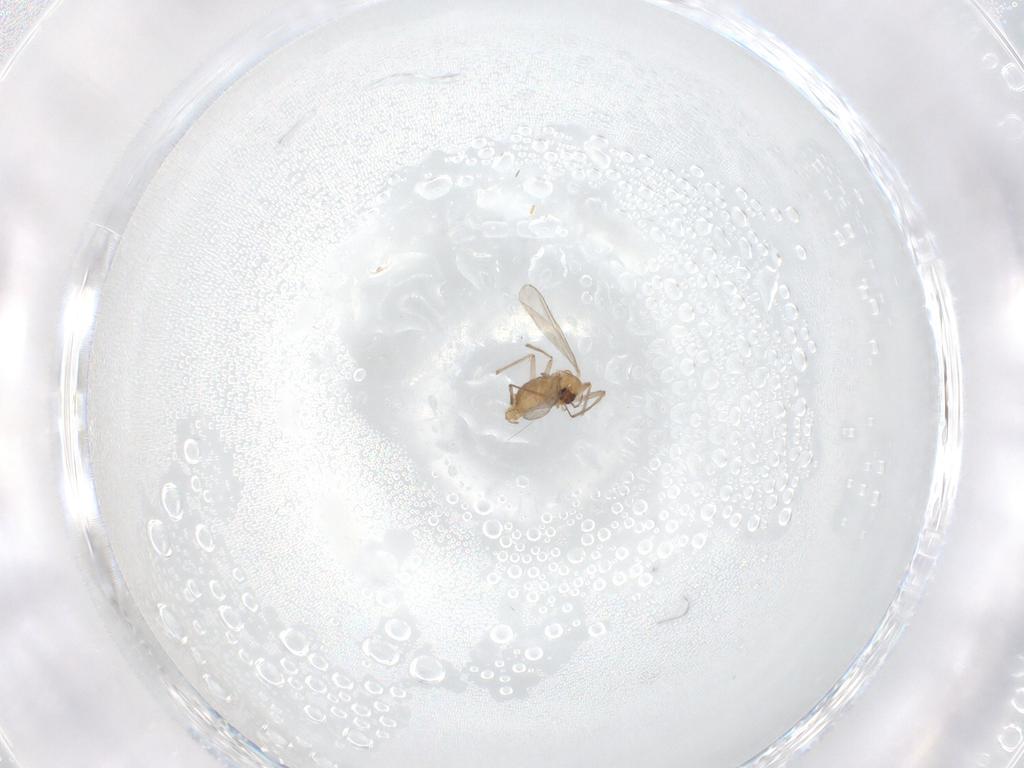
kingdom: Animalia
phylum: Arthropoda
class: Insecta
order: Diptera
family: Chironomidae
